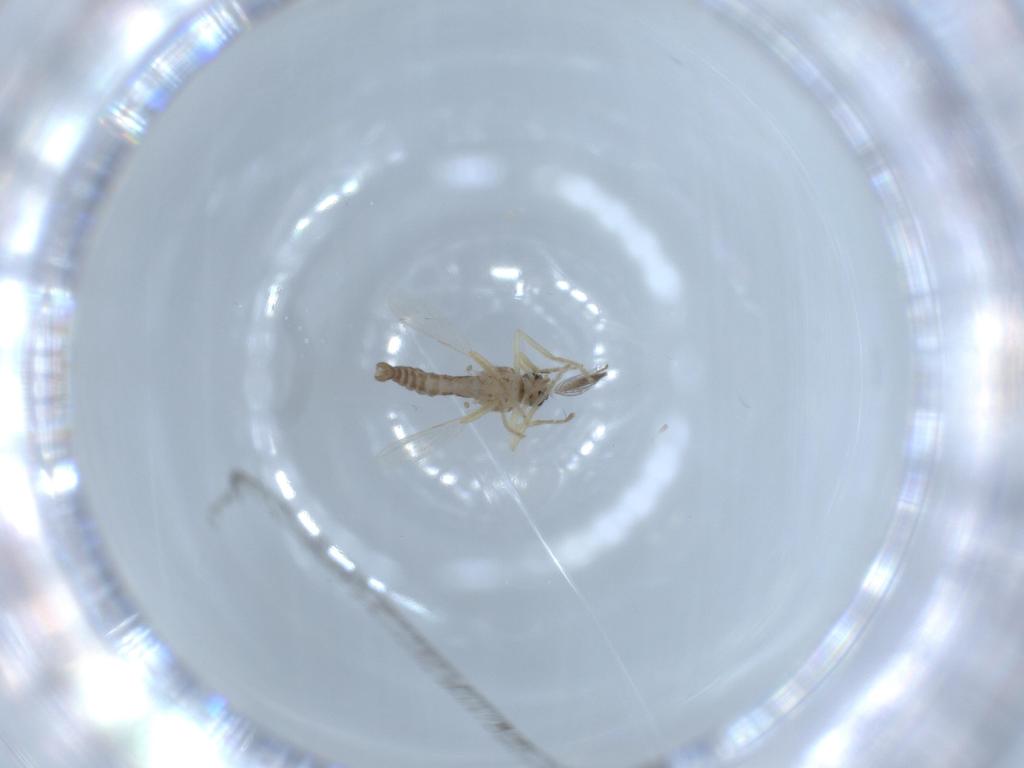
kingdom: Animalia
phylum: Arthropoda
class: Insecta
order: Diptera
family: Ceratopogonidae
